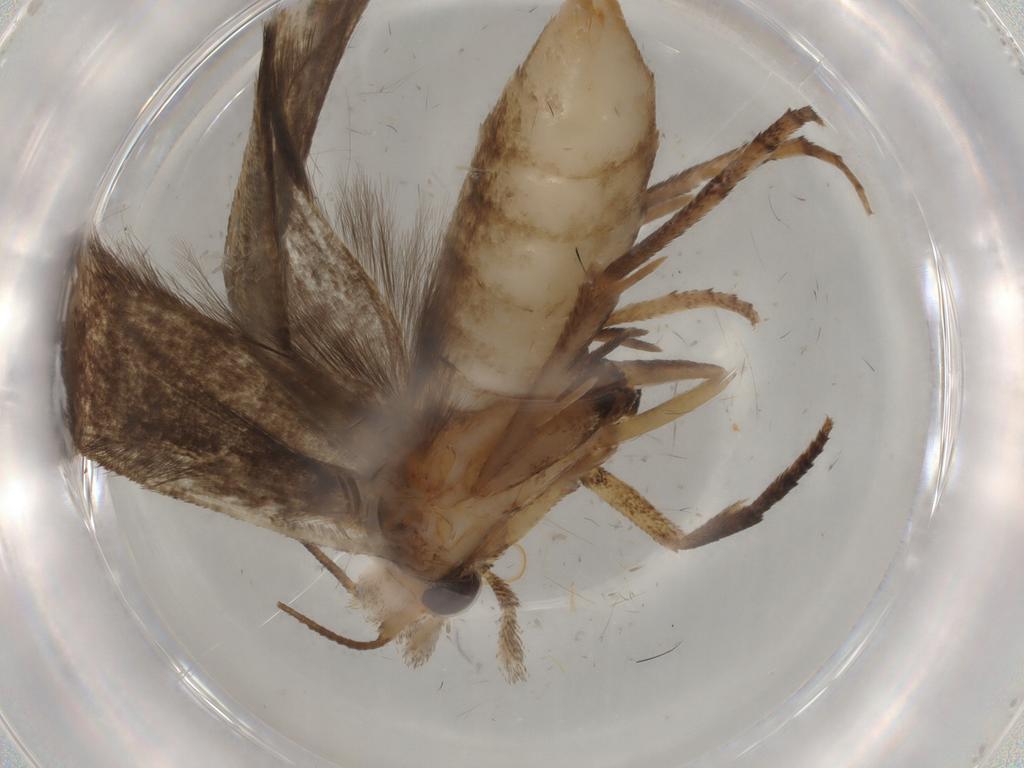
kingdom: Animalia
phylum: Arthropoda
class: Insecta
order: Lepidoptera
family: Yponomeutidae
